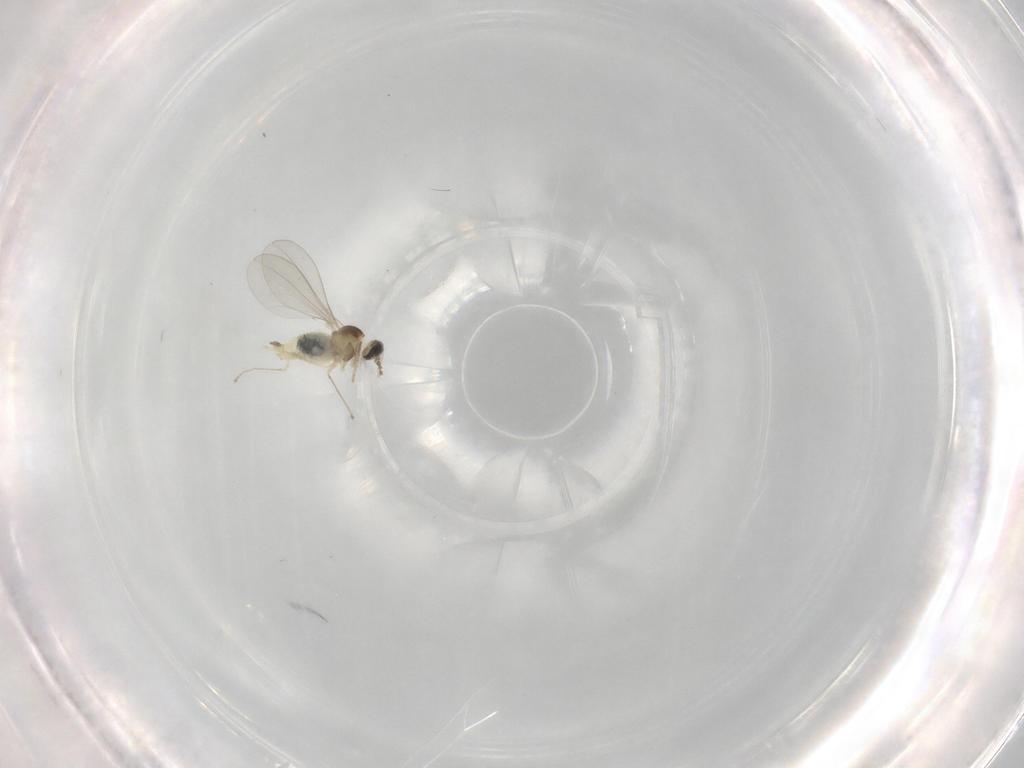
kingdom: Animalia
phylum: Arthropoda
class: Insecta
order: Diptera
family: Cecidomyiidae
